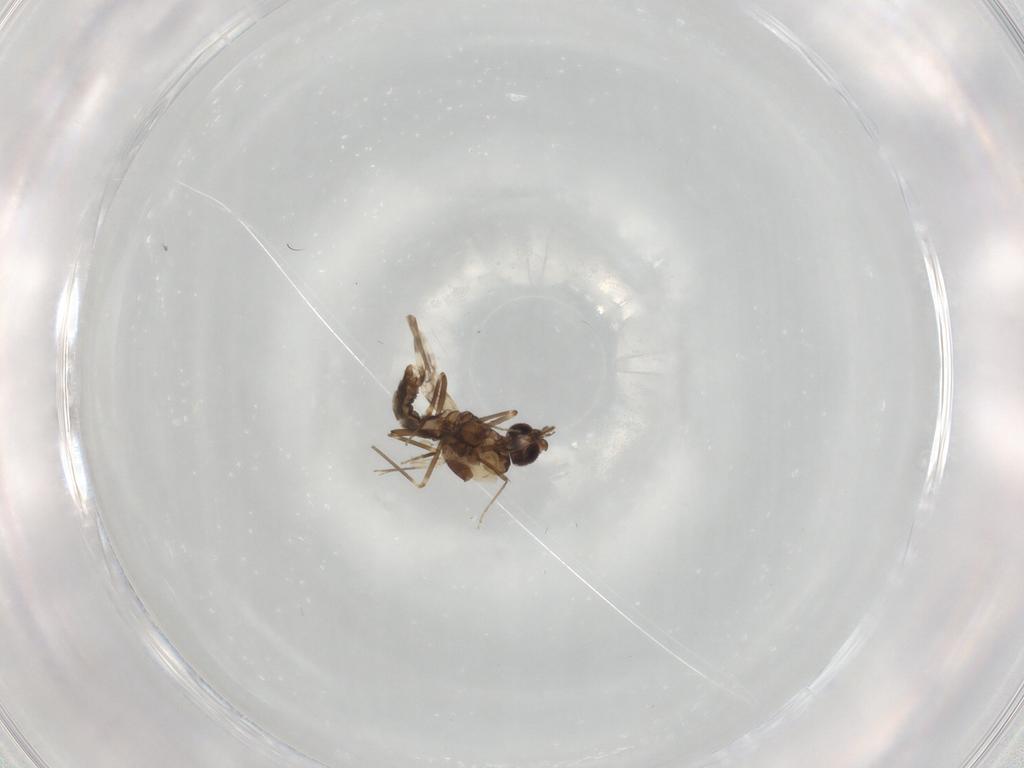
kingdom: Animalia
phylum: Arthropoda
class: Insecta
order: Diptera
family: Ceratopogonidae
